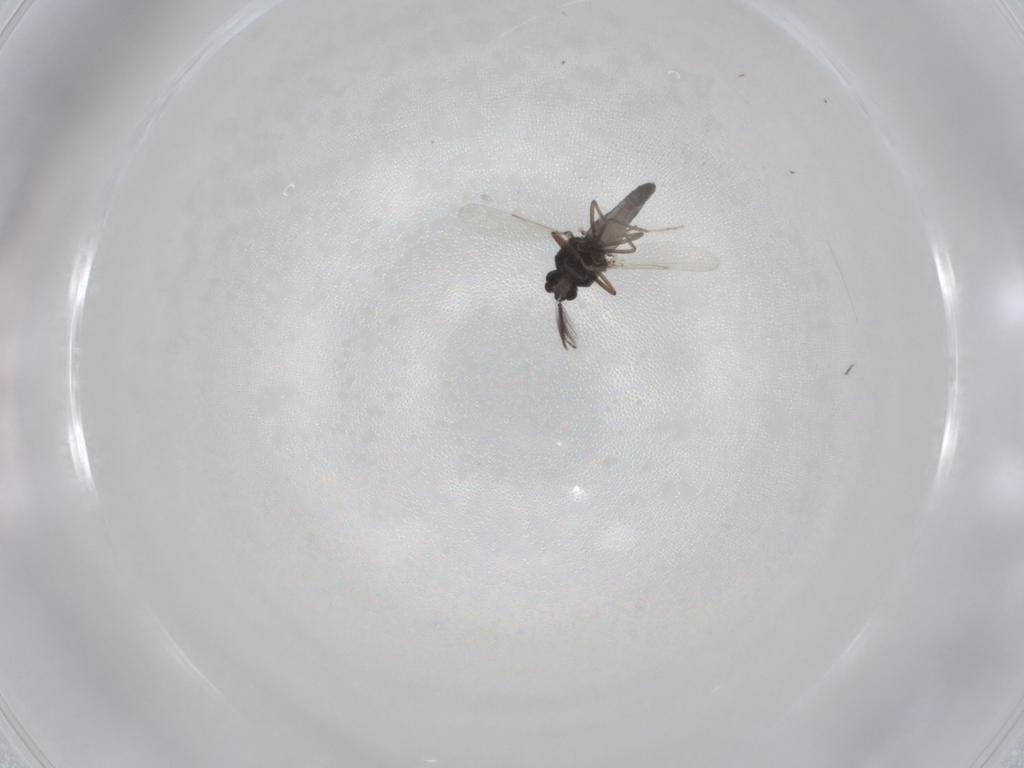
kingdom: Animalia
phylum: Arthropoda
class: Insecta
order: Diptera
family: Ceratopogonidae
